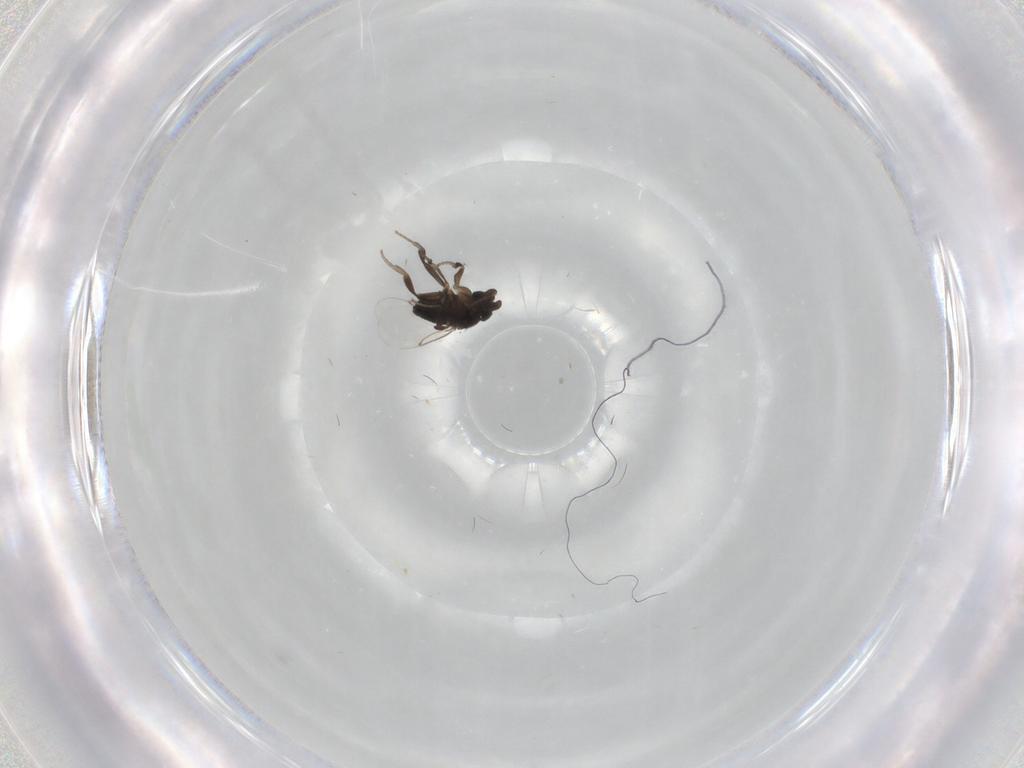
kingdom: Animalia
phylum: Arthropoda
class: Insecta
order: Diptera
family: Phoridae
